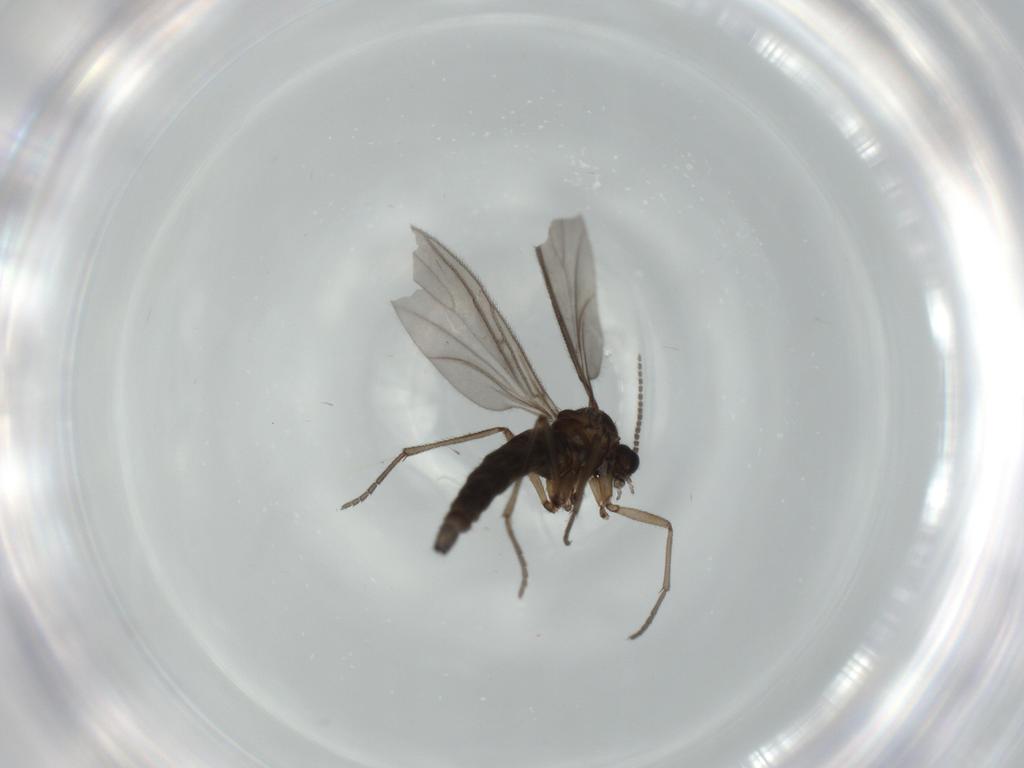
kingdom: Animalia
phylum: Arthropoda
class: Insecta
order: Diptera
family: Sciaridae
